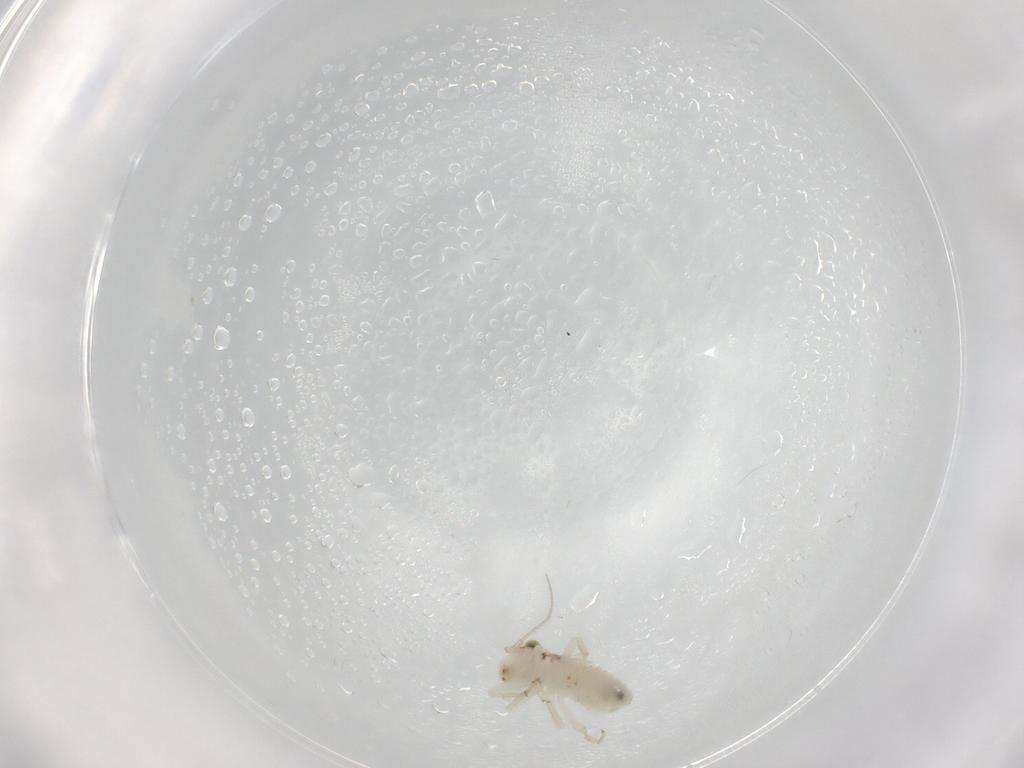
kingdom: Animalia
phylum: Arthropoda
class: Insecta
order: Psocodea
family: Lepidopsocidae
